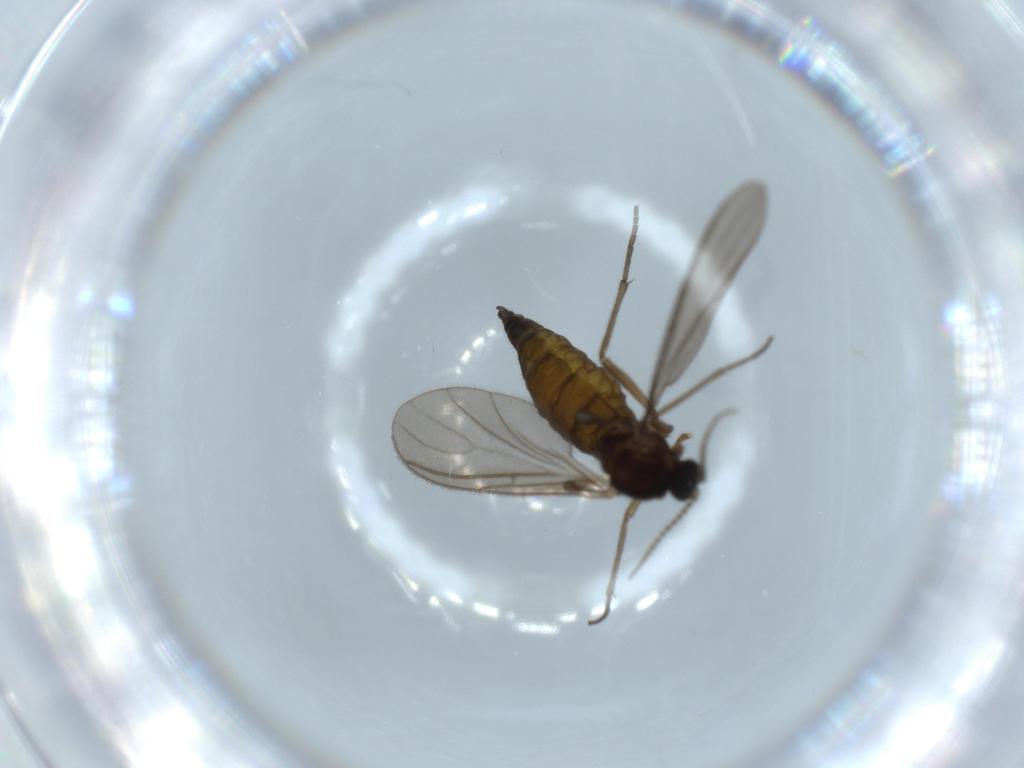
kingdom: Animalia
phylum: Arthropoda
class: Insecta
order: Diptera
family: Sciaridae
